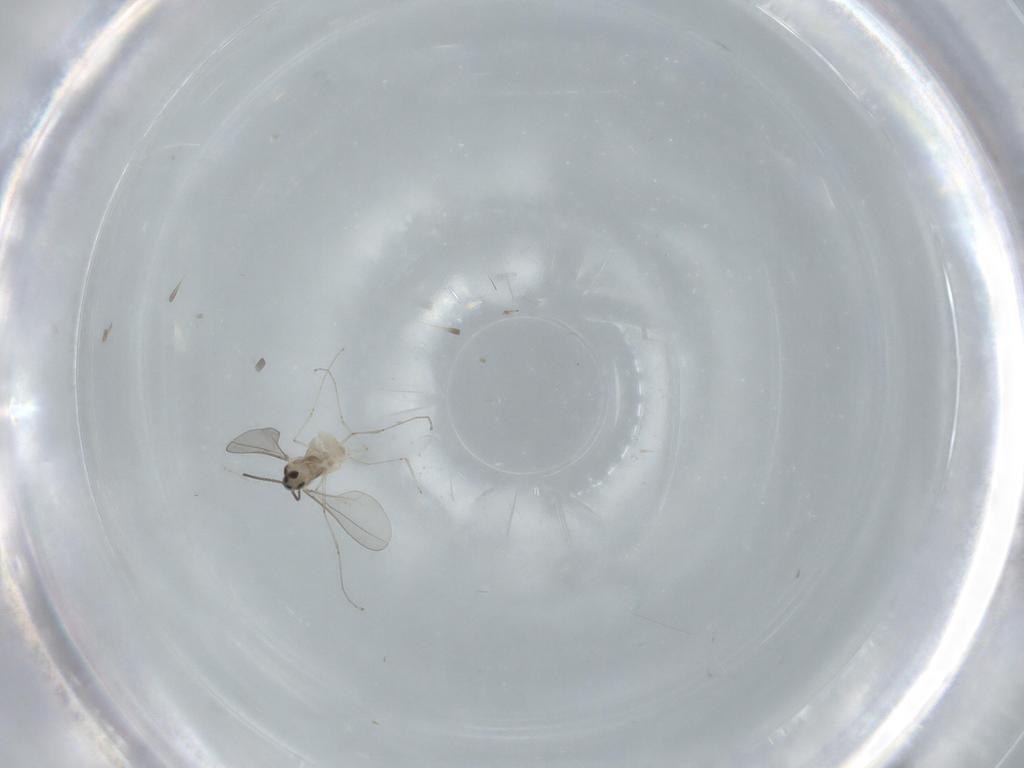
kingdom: Animalia
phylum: Arthropoda
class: Insecta
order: Diptera
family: Cecidomyiidae
